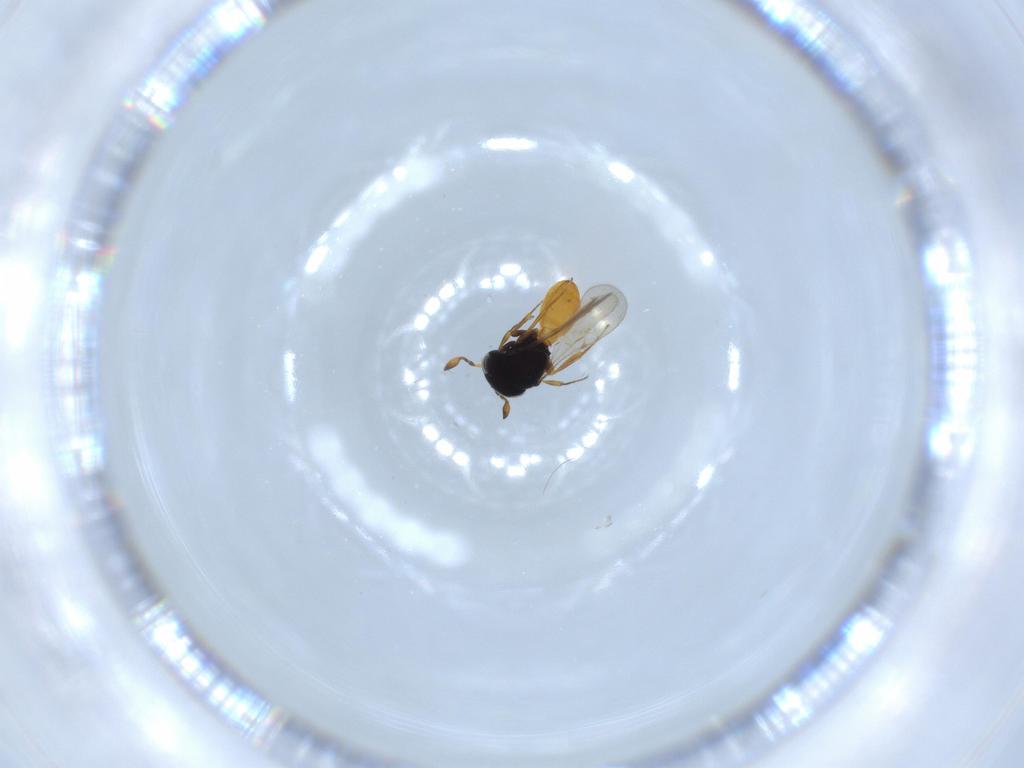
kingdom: Animalia
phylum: Arthropoda
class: Insecta
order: Hymenoptera
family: Scelionidae
